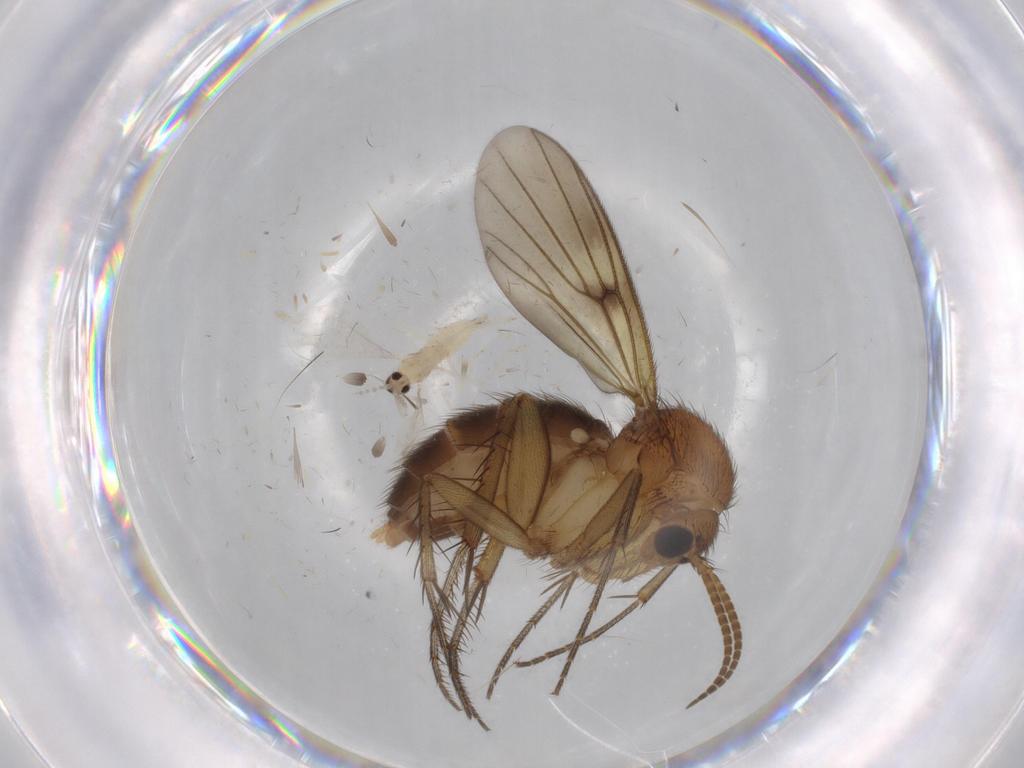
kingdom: Animalia
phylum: Arthropoda
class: Insecta
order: Diptera
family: Cecidomyiidae
